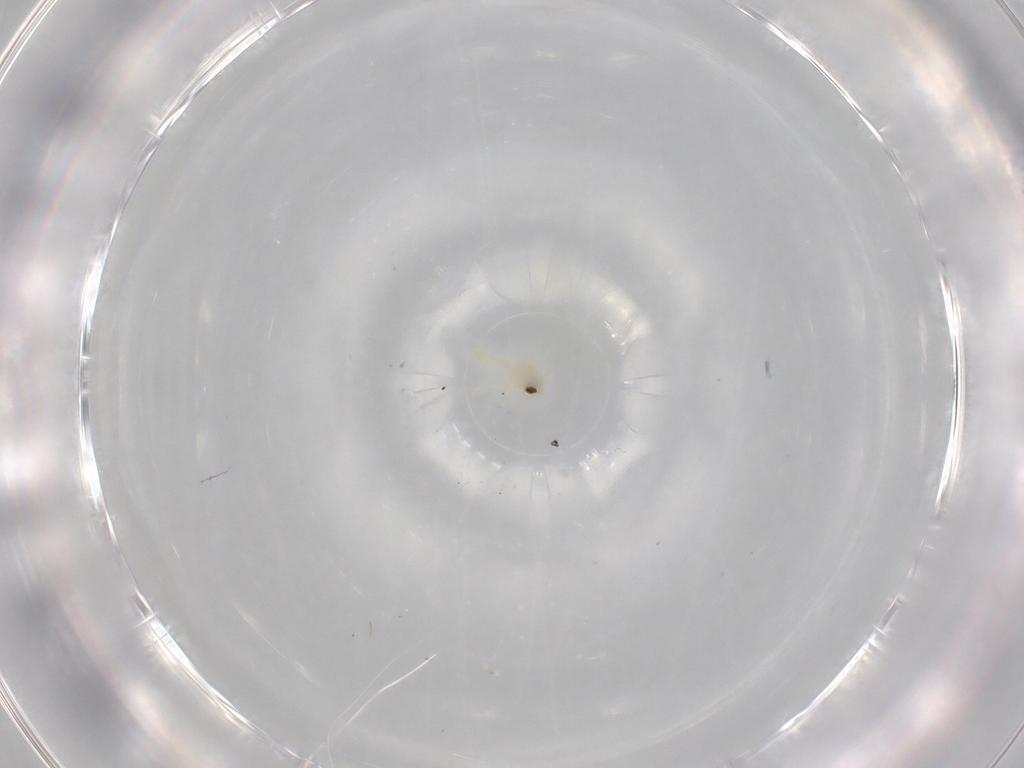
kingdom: Animalia
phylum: Arthropoda
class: Insecta
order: Hemiptera
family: Aleyrodidae
